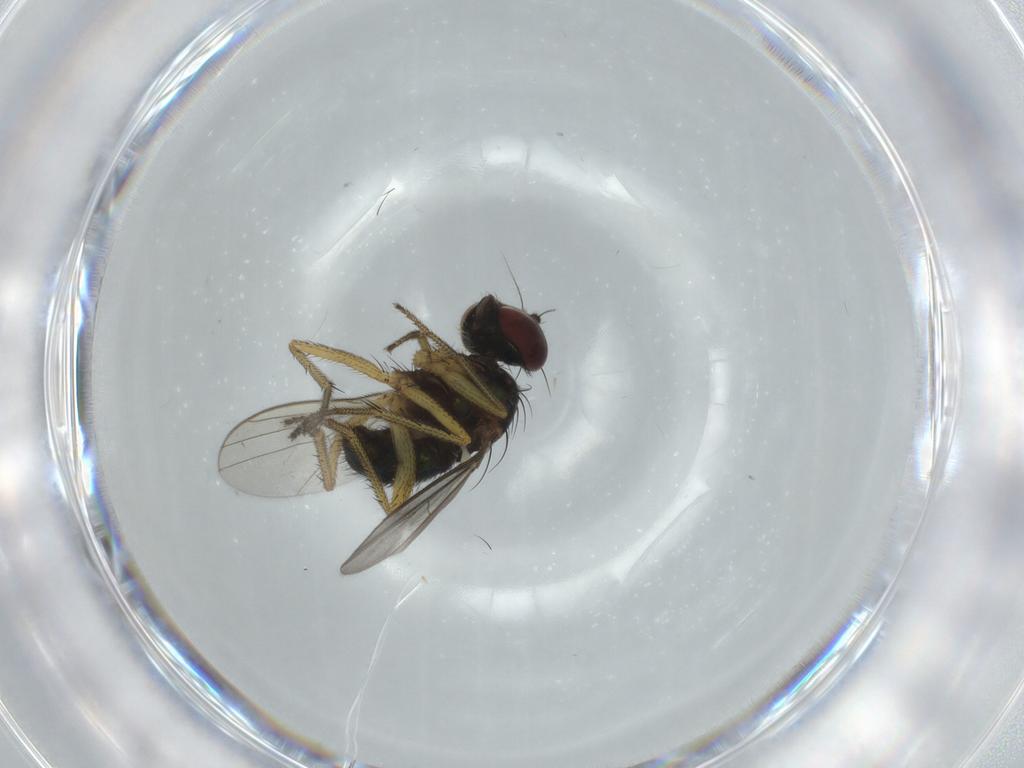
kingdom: Animalia
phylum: Arthropoda
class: Insecta
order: Diptera
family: Dolichopodidae
